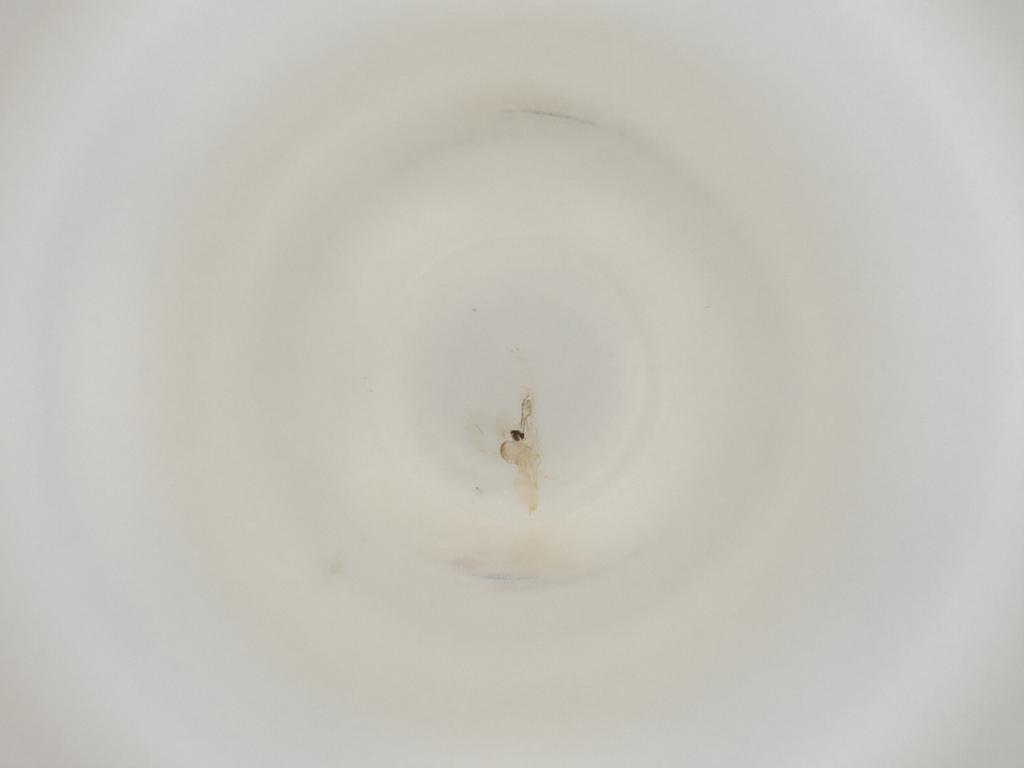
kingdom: Animalia
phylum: Arthropoda
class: Insecta
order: Diptera
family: Cecidomyiidae
